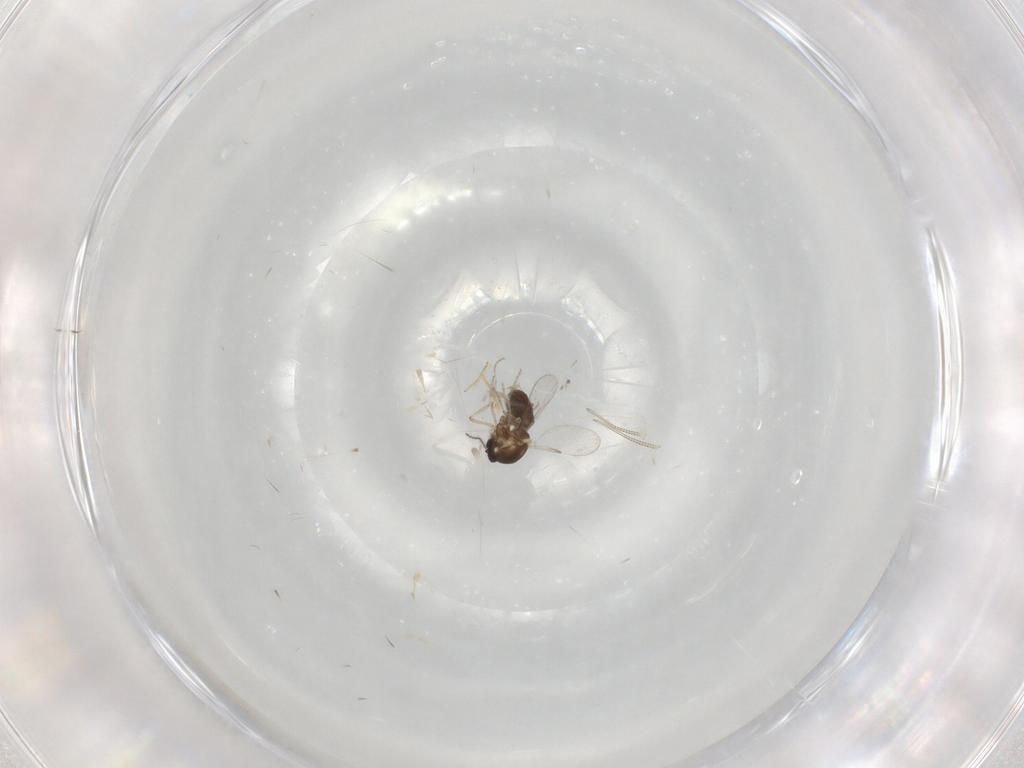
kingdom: Animalia
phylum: Arthropoda
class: Insecta
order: Diptera
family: Ceratopogonidae
